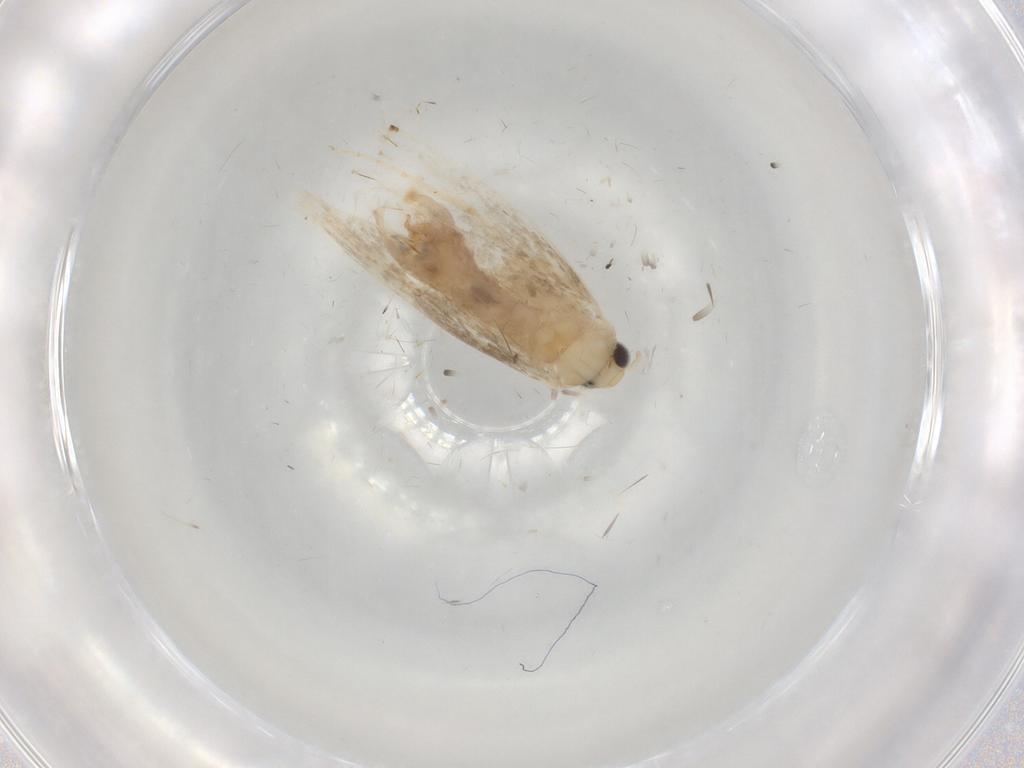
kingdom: Animalia
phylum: Arthropoda
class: Insecta
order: Lepidoptera
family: Dryadaulidae
